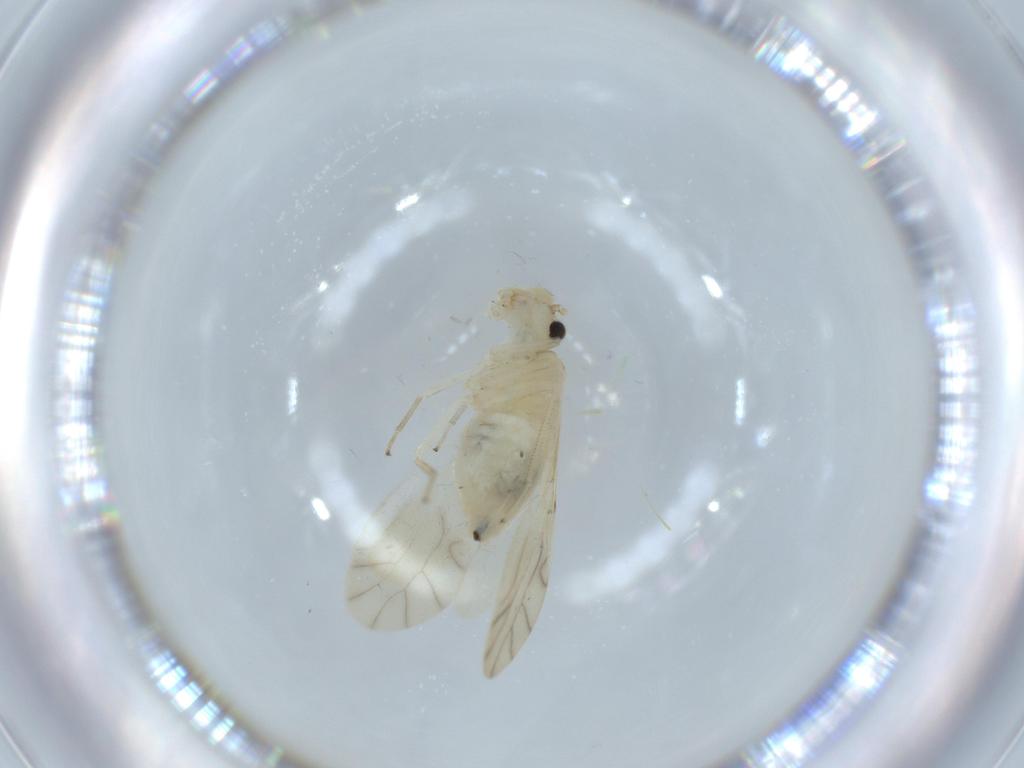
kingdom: Animalia
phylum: Arthropoda
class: Insecta
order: Psocodea
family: Caeciliusidae
